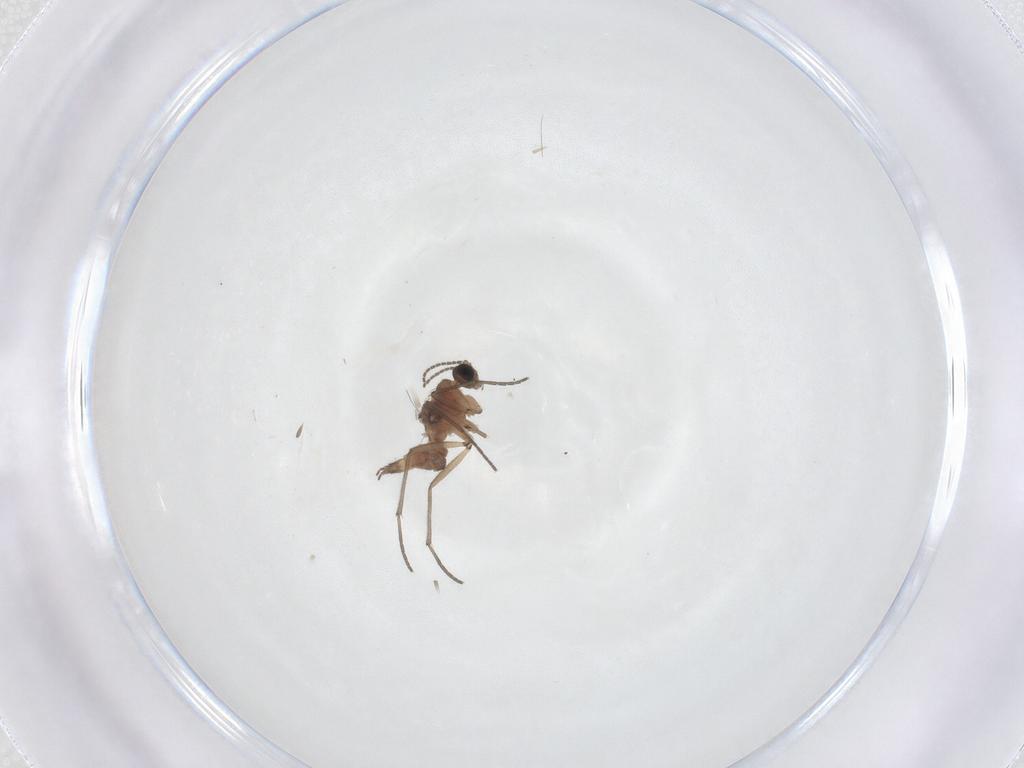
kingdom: Animalia
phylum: Arthropoda
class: Insecta
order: Diptera
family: Sciaridae
